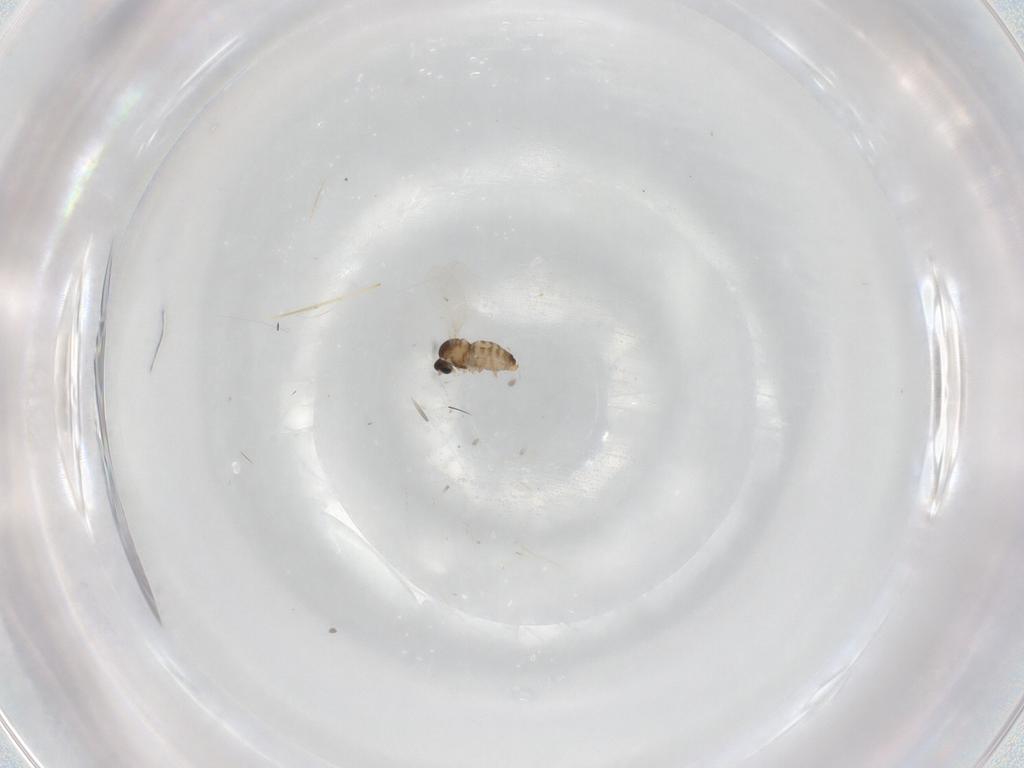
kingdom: Animalia
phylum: Arthropoda
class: Insecta
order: Diptera
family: Cecidomyiidae
